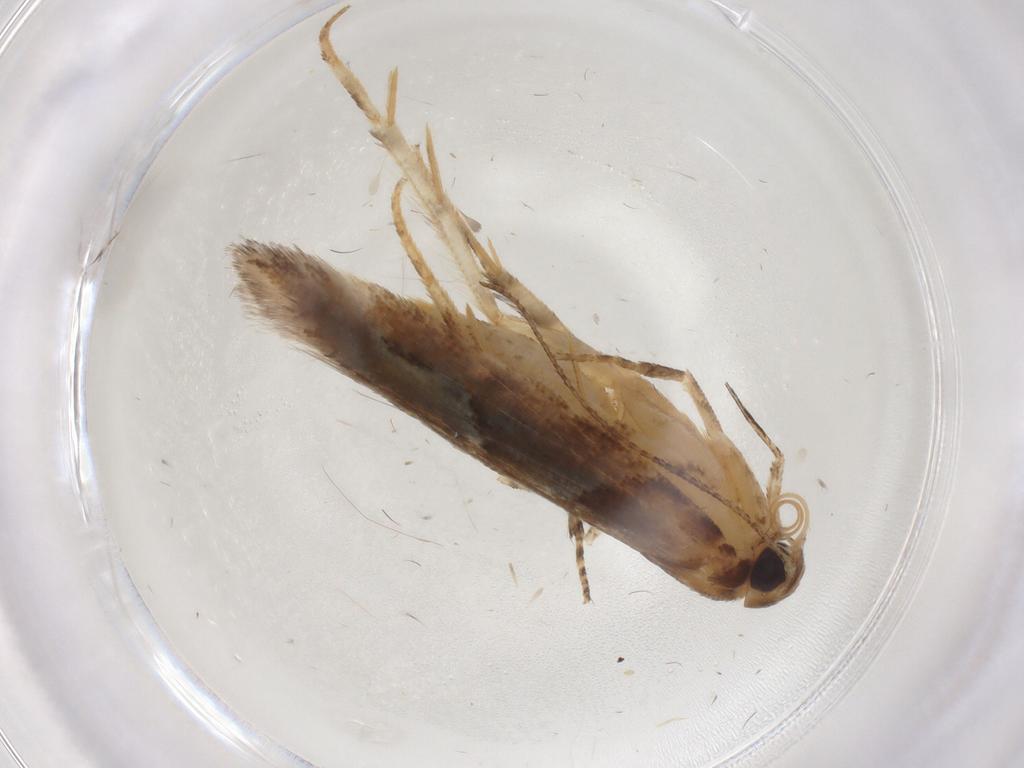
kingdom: Animalia
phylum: Arthropoda
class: Insecta
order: Lepidoptera
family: Gelechiidae
